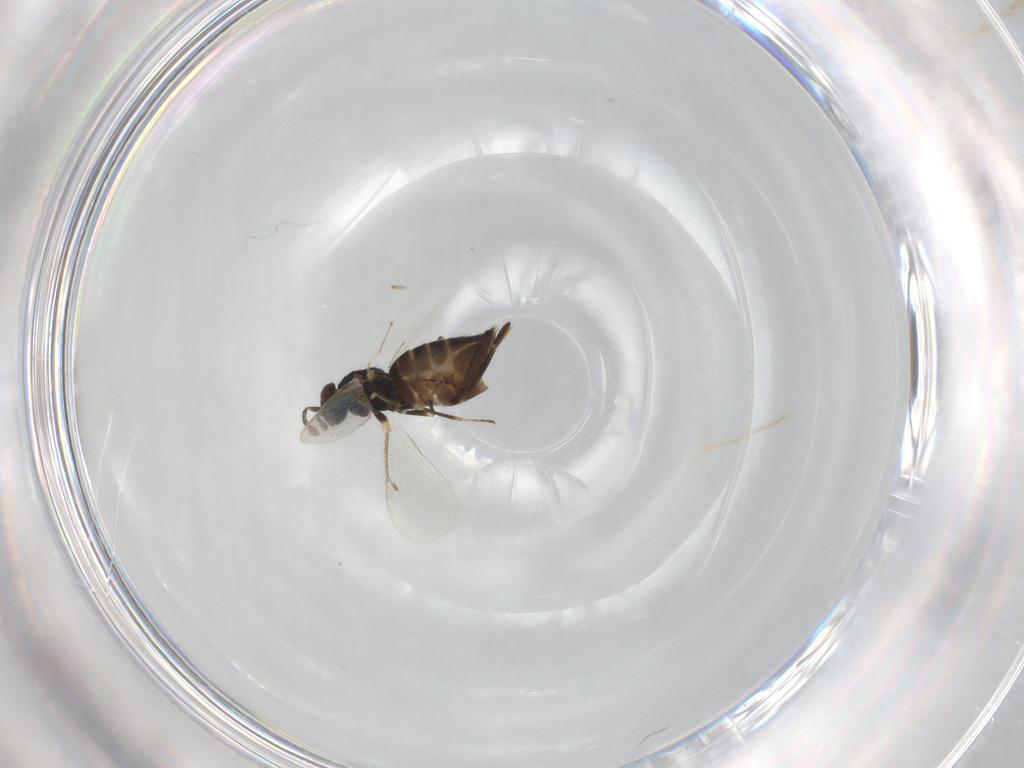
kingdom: Animalia
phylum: Arthropoda
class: Insecta
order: Hymenoptera
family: Eulophidae
